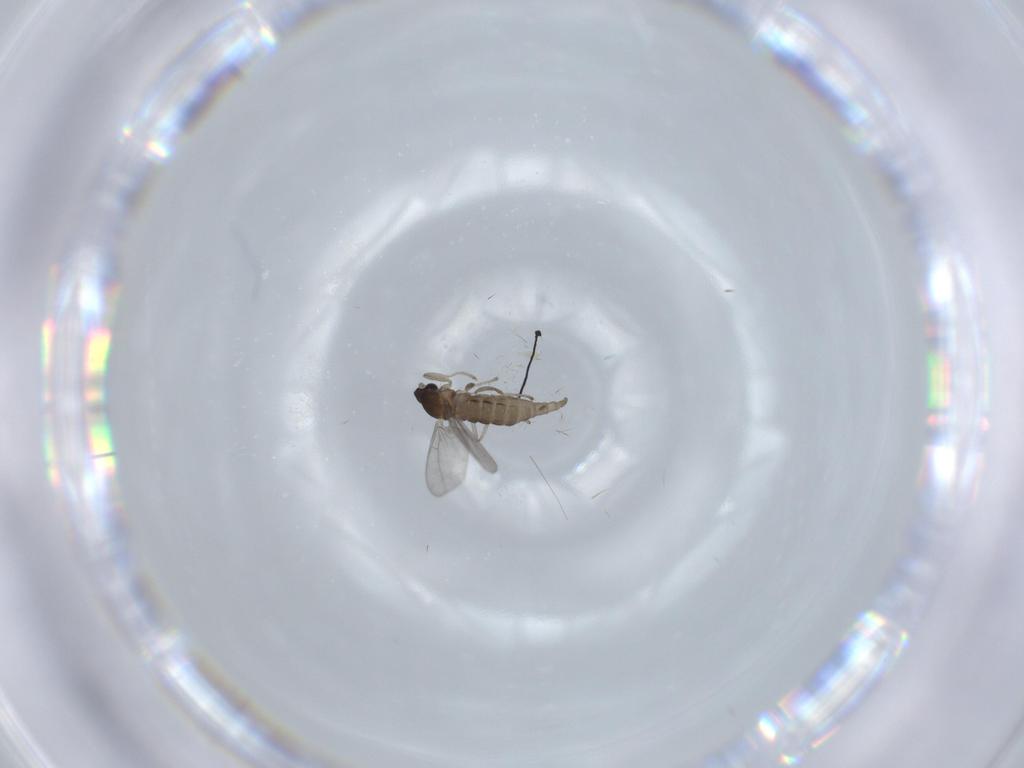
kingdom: Animalia
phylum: Arthropoda
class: Insecta
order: Diptera
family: Cecidomyiidae
